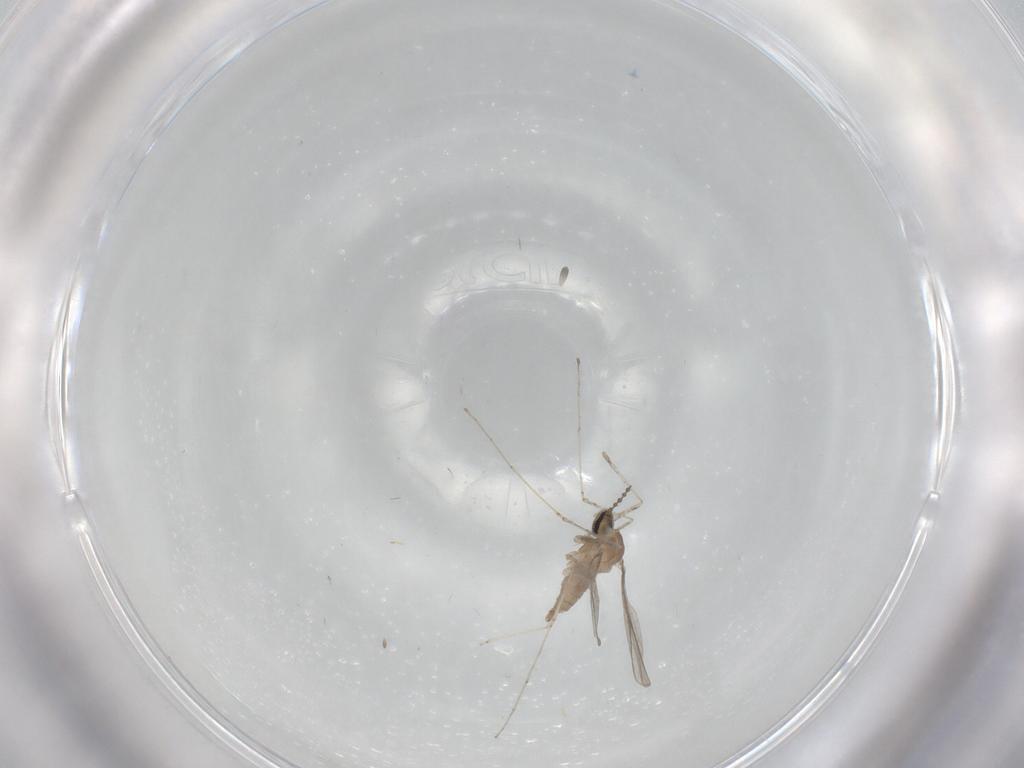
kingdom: Animalia
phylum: Arthropoda
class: Insecta
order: Diptera
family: Cecidomyiidae
